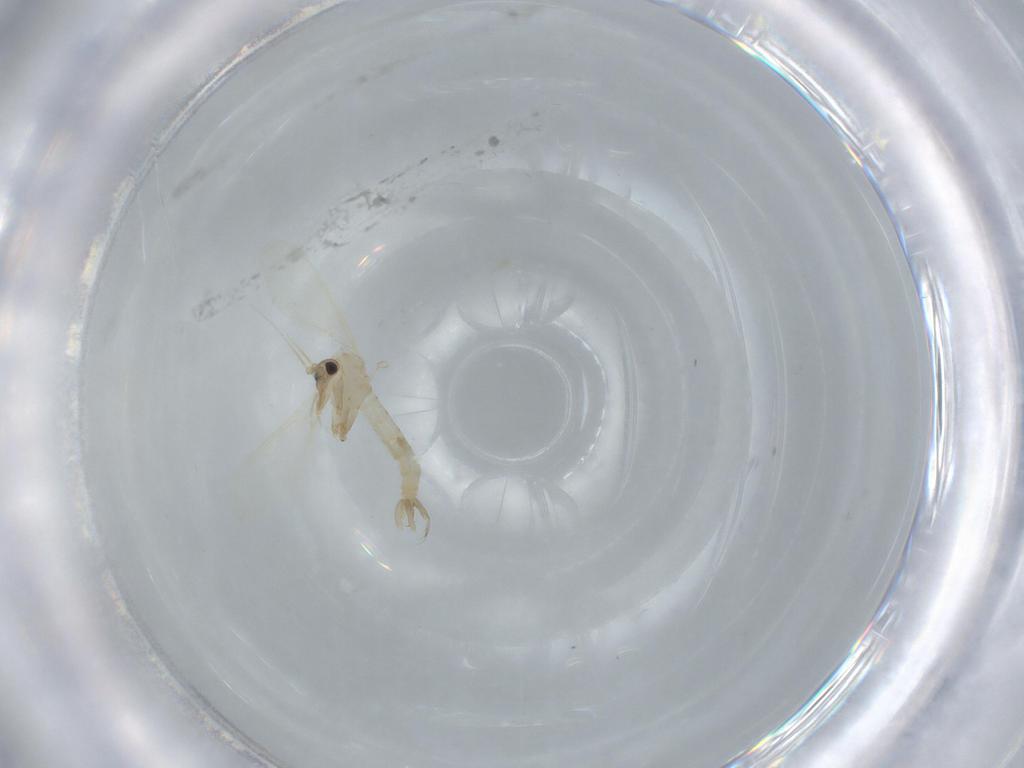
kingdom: Animalia
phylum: Arthropoda
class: Insecta
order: Diptera
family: Psychodidae
